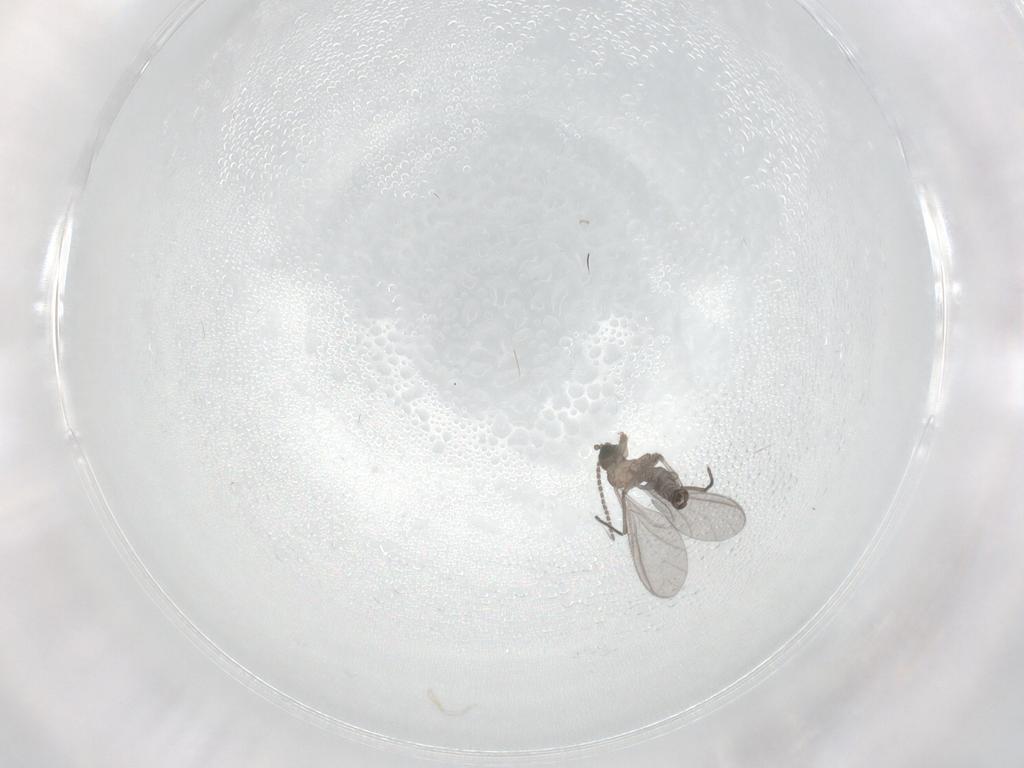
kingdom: Animalia
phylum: Arthropoda
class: Insecta
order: Diptera
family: Sciaridae
